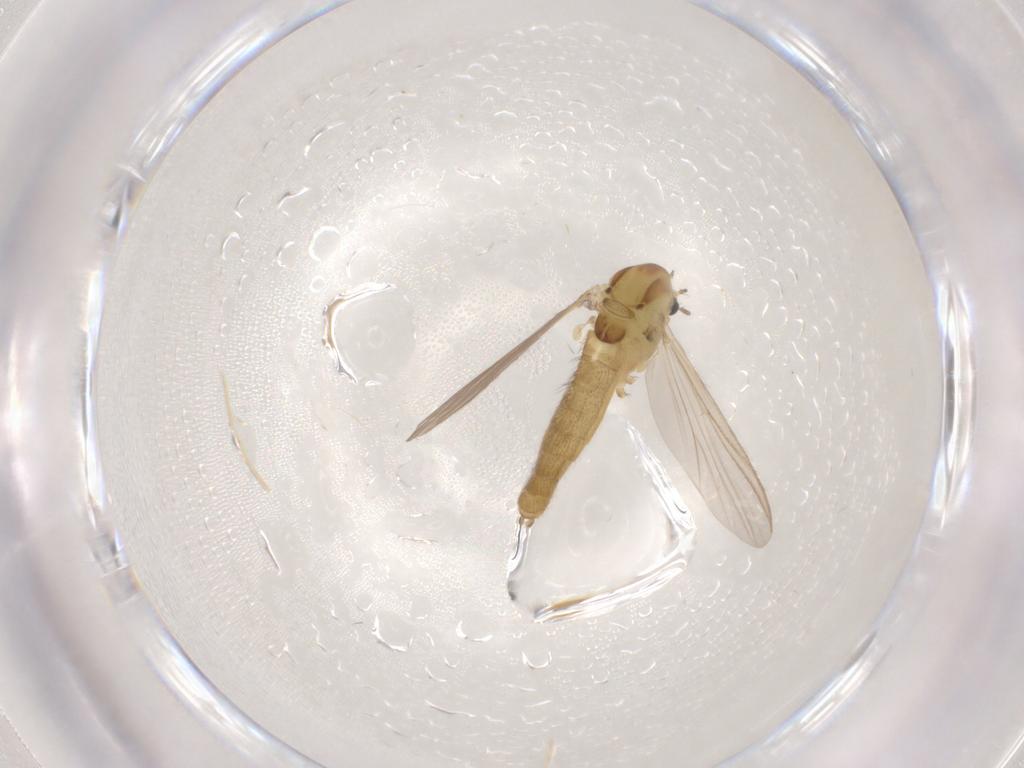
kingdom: Animalia
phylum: Arthropoda
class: Insecta
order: Diptera
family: Chironomidae
